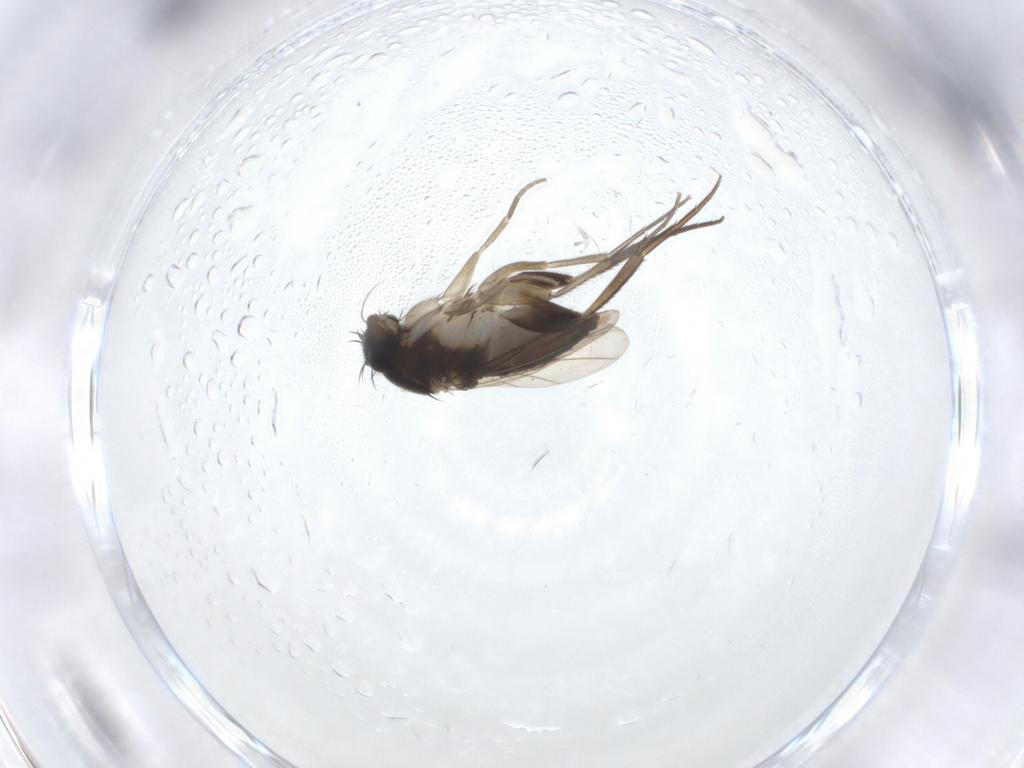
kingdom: Animalia
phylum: Arthropoda
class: Insecta
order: Diptera
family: Phoridae
